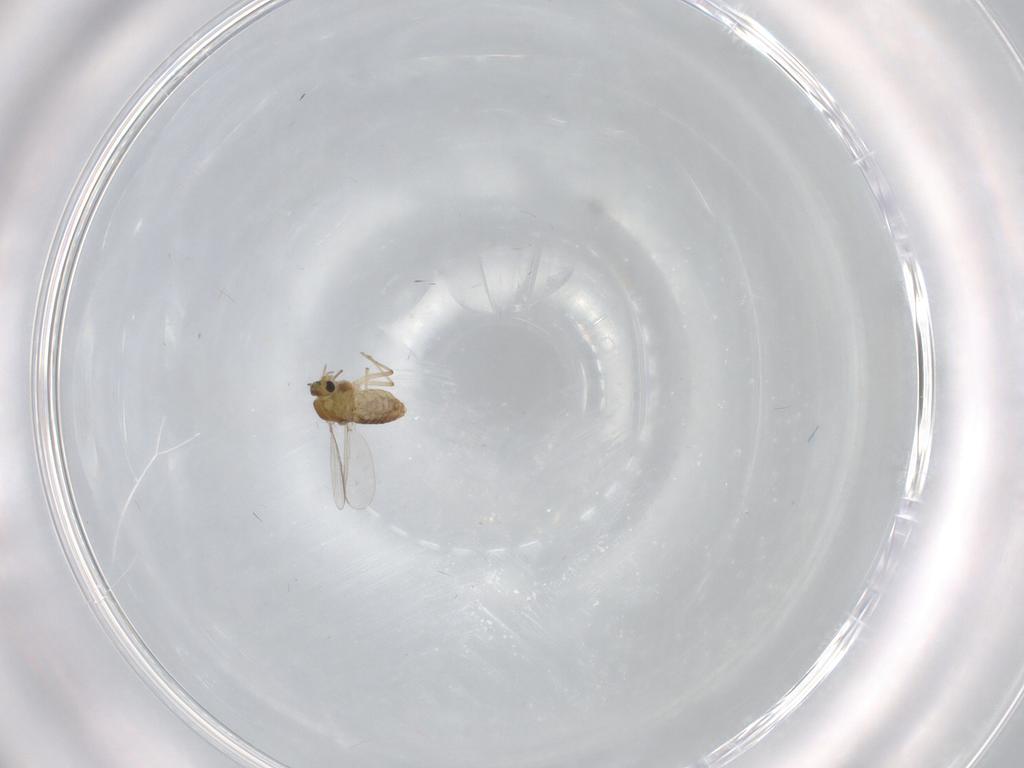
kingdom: Animalia
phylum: Arthropoda
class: Insecta
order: Diptera
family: Chironomidae
